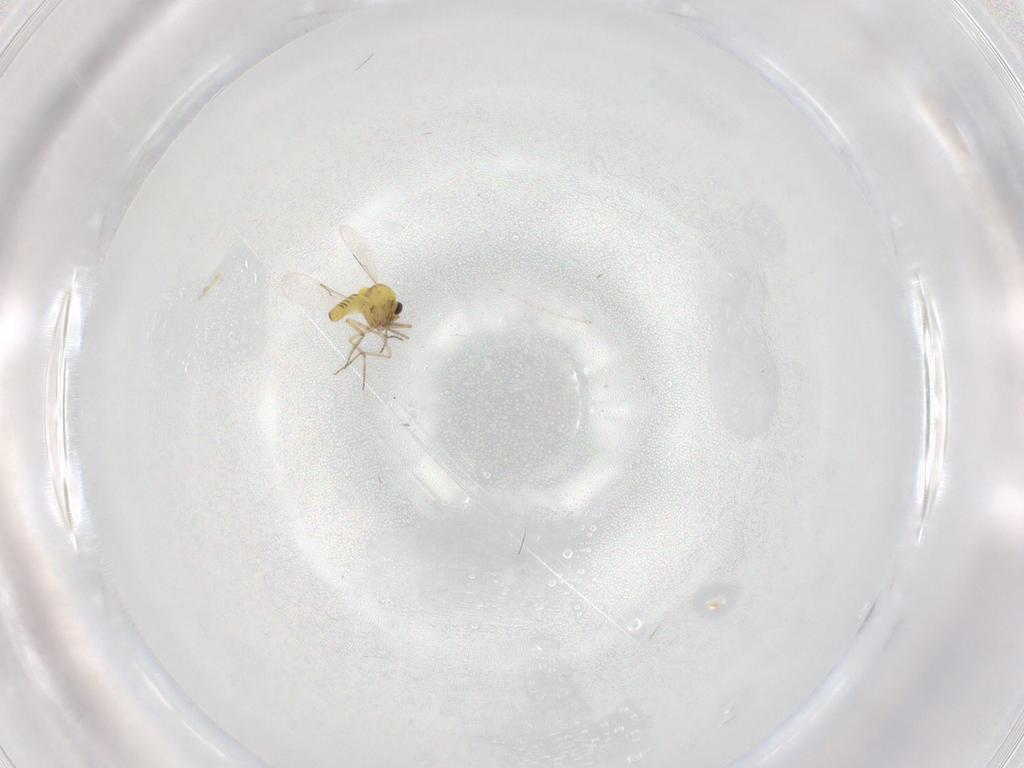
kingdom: Animalia
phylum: Arthropoda
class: Insecta
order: Diptera
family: Ceratopogonidae
